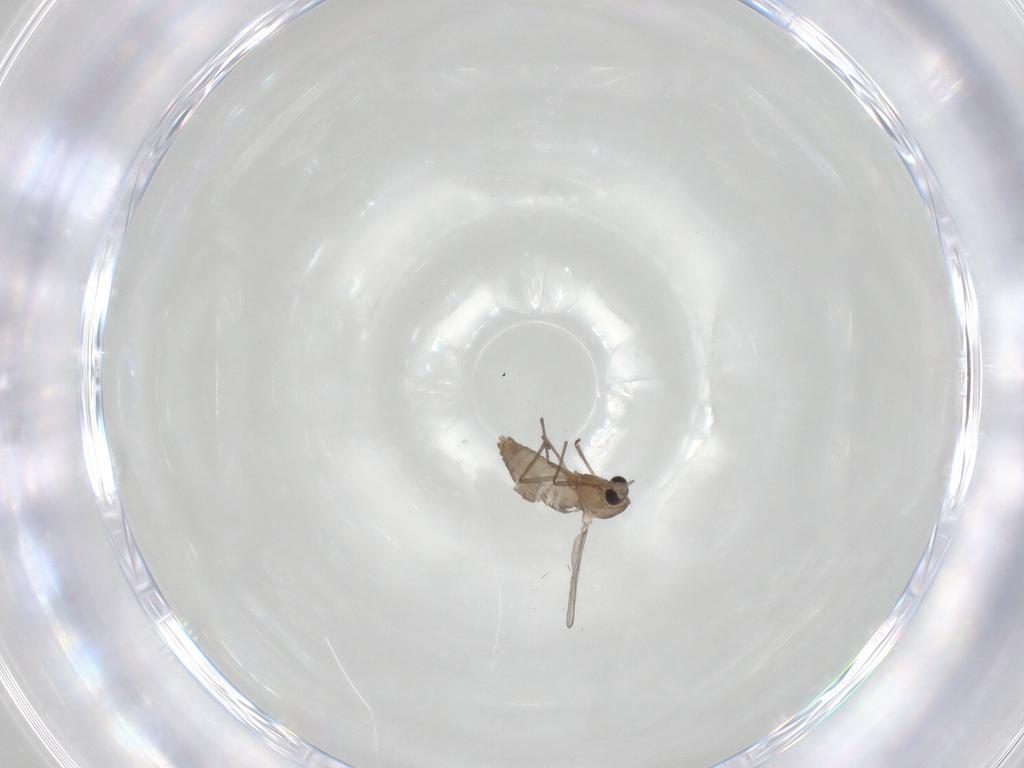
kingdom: Animalia
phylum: Arthropoda
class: Insecta
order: Diptera
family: Chironomidae
